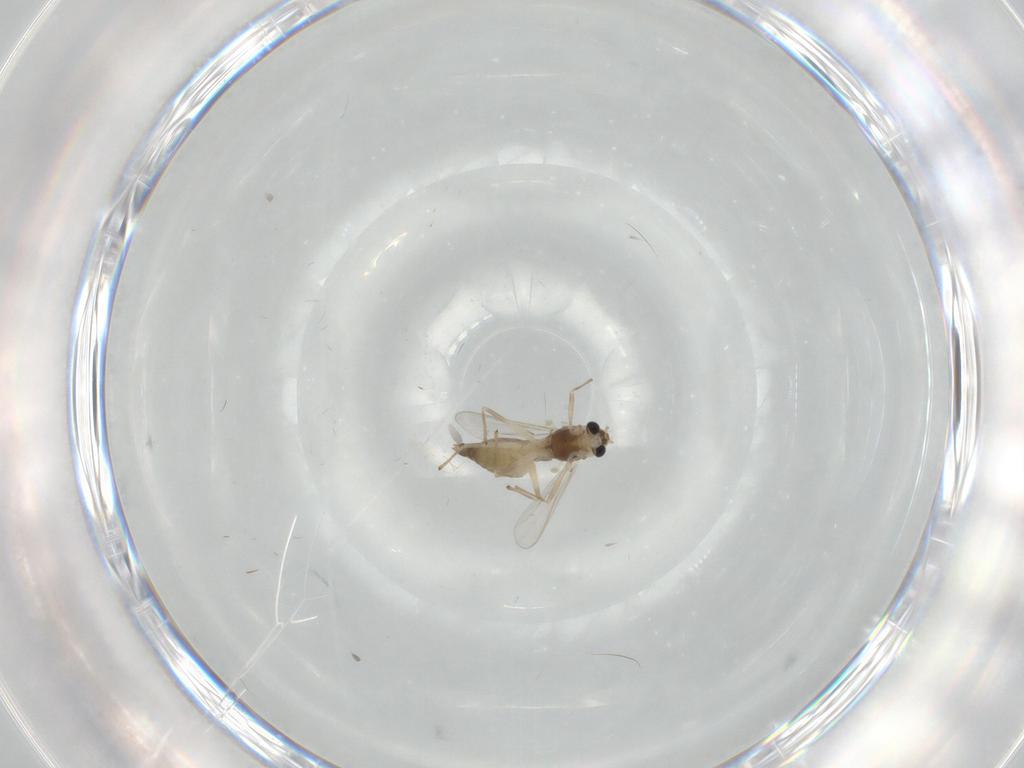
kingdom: Animalia
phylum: Arthropoda
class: Insecta
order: Diptera
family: Chironomidae
